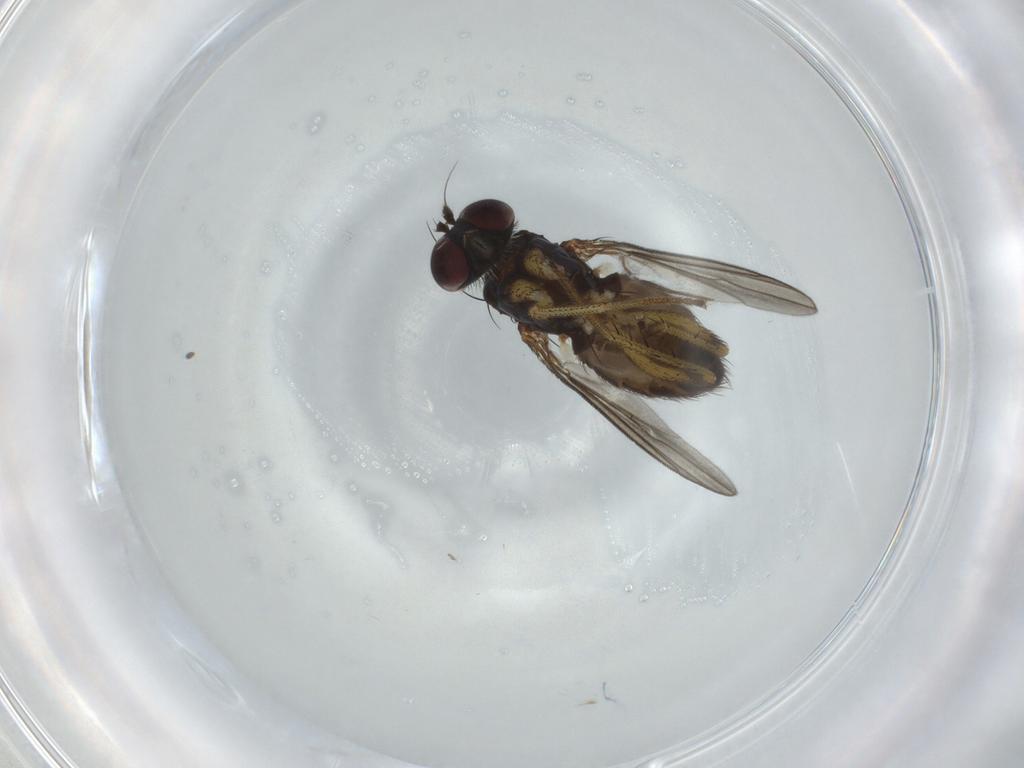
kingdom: Animalia
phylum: Arthropoda
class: Insecta
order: Diptera
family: Dolichopodidae
